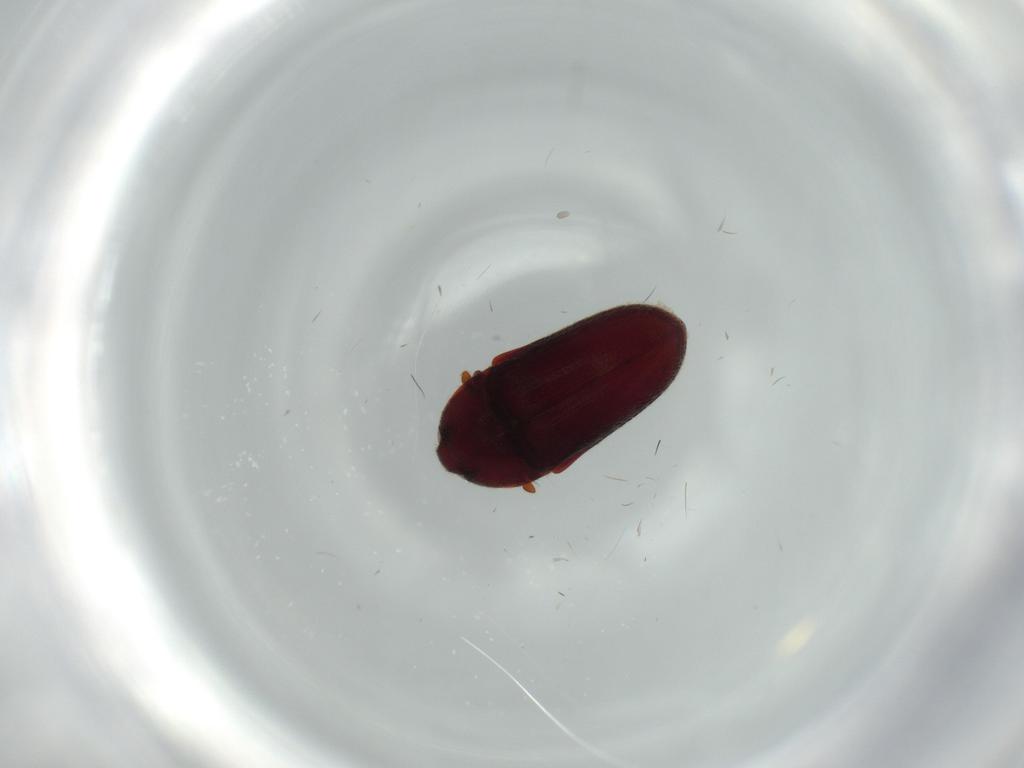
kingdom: Animalia
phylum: Arthropoda
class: Insecta
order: Coleoptera
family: Throscidae
